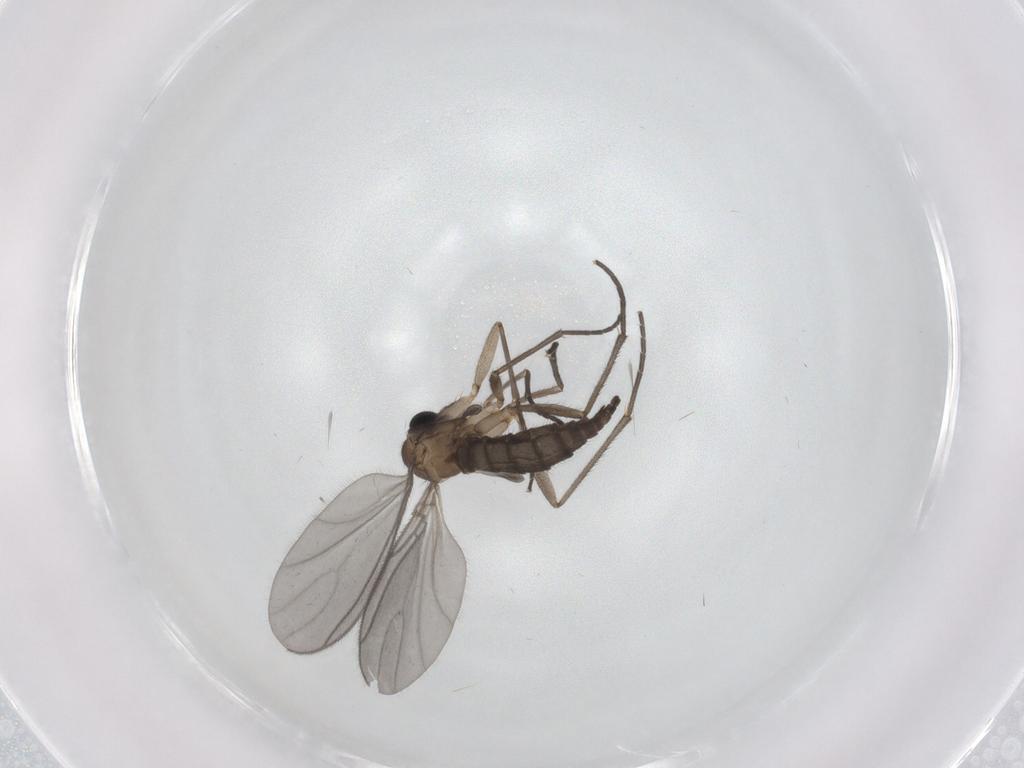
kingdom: Animalia
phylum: Arthropoda
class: Insecta
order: Diptera
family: Sciaridae
